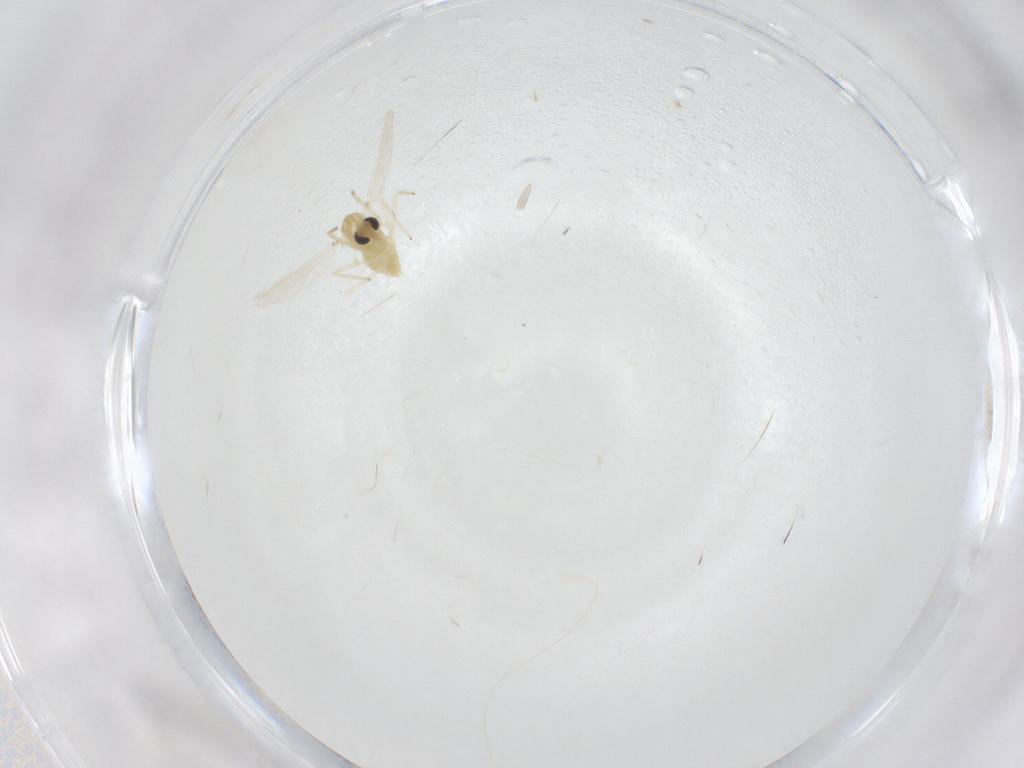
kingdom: Animalia
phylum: Arthropoda
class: Insecta
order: Diptera
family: Chironomidae
